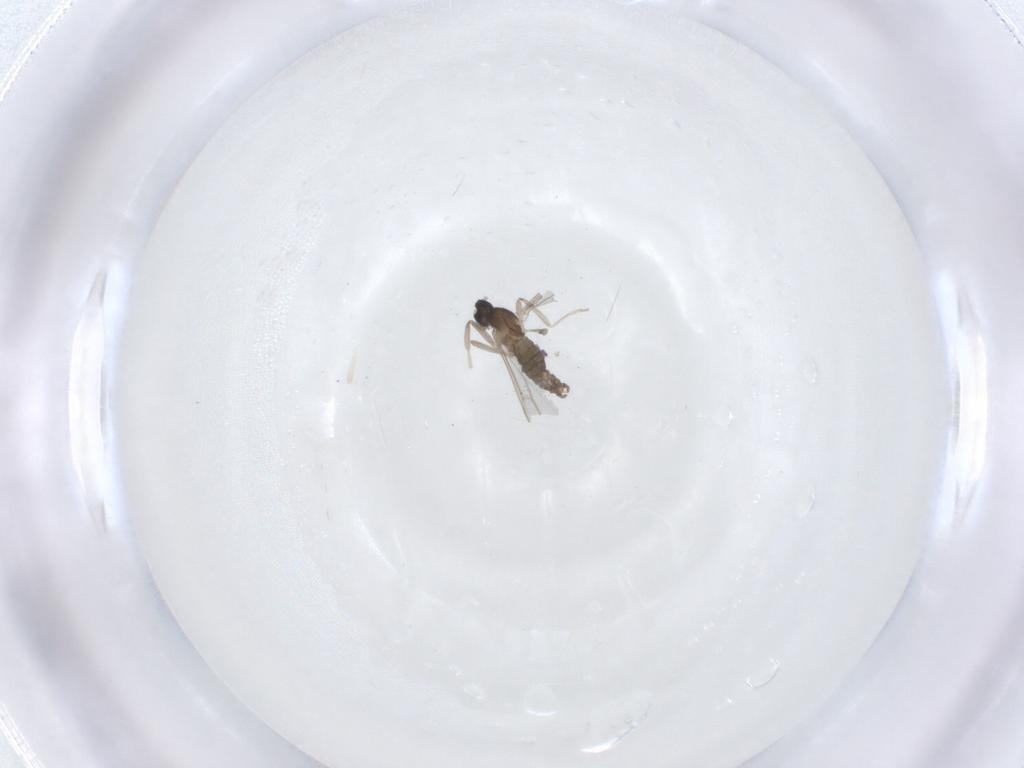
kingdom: Animalia
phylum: Arthropoda
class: Insecta
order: Diptera
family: Cecidomyiidae
